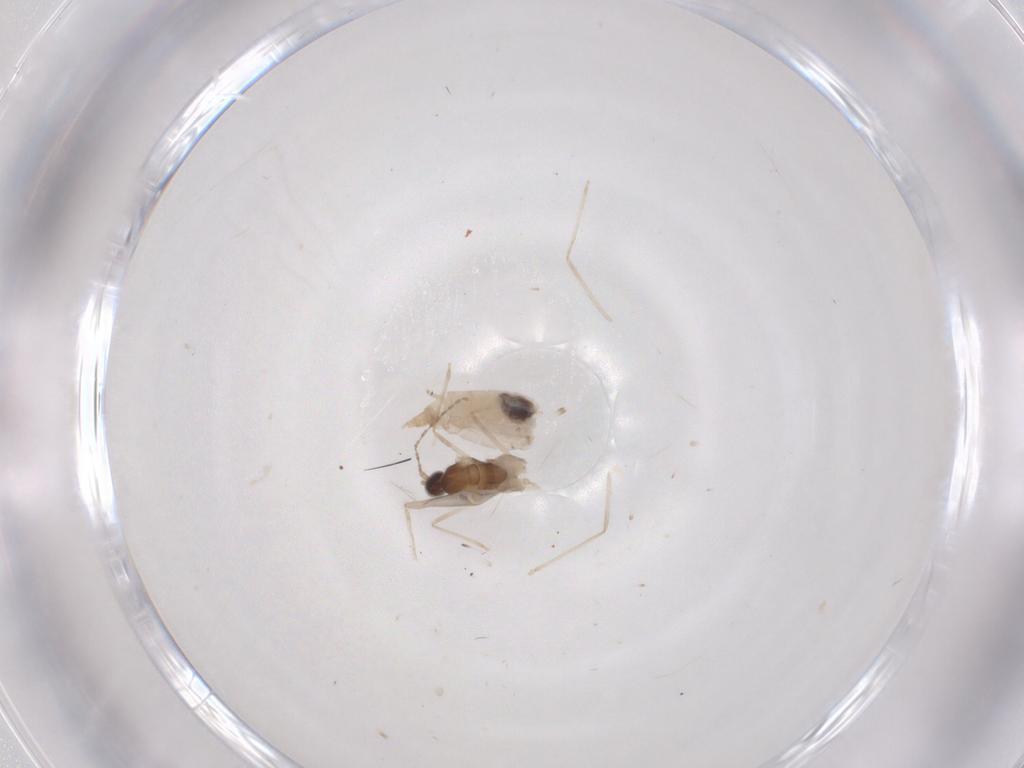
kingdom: Animalia
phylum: Arthropoda
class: Insecta
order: Diptera
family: Cecidomyiidae
